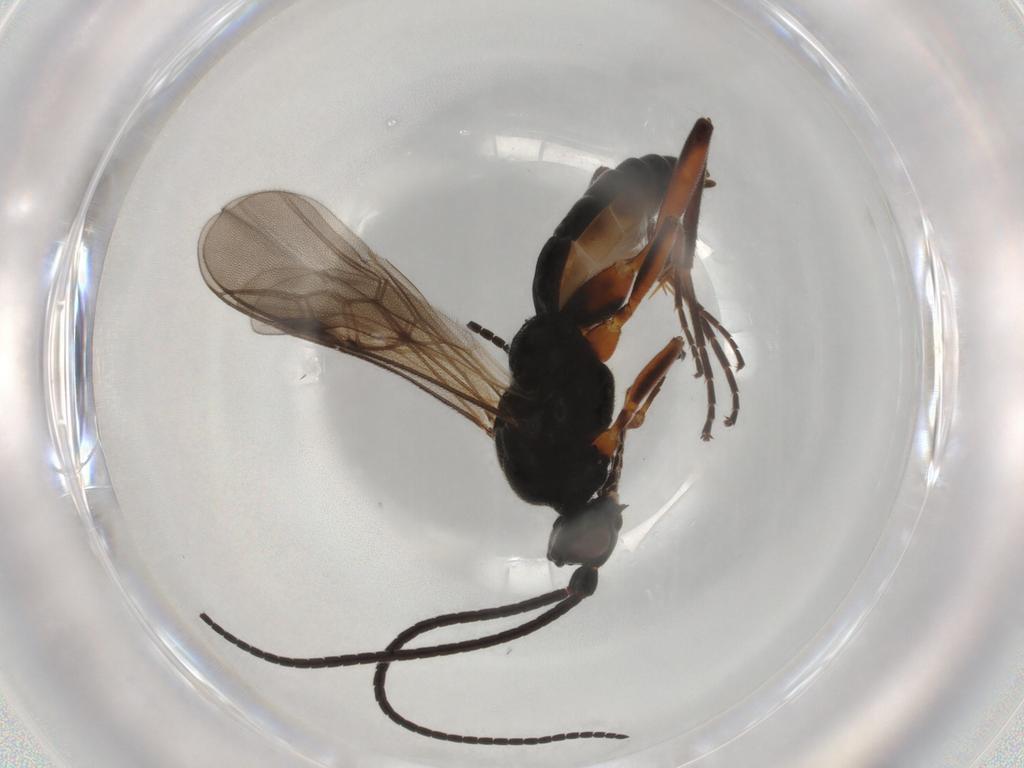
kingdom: Animalia
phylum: Arthropoda
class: Insecta
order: Hymenoptera
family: Braconidae
